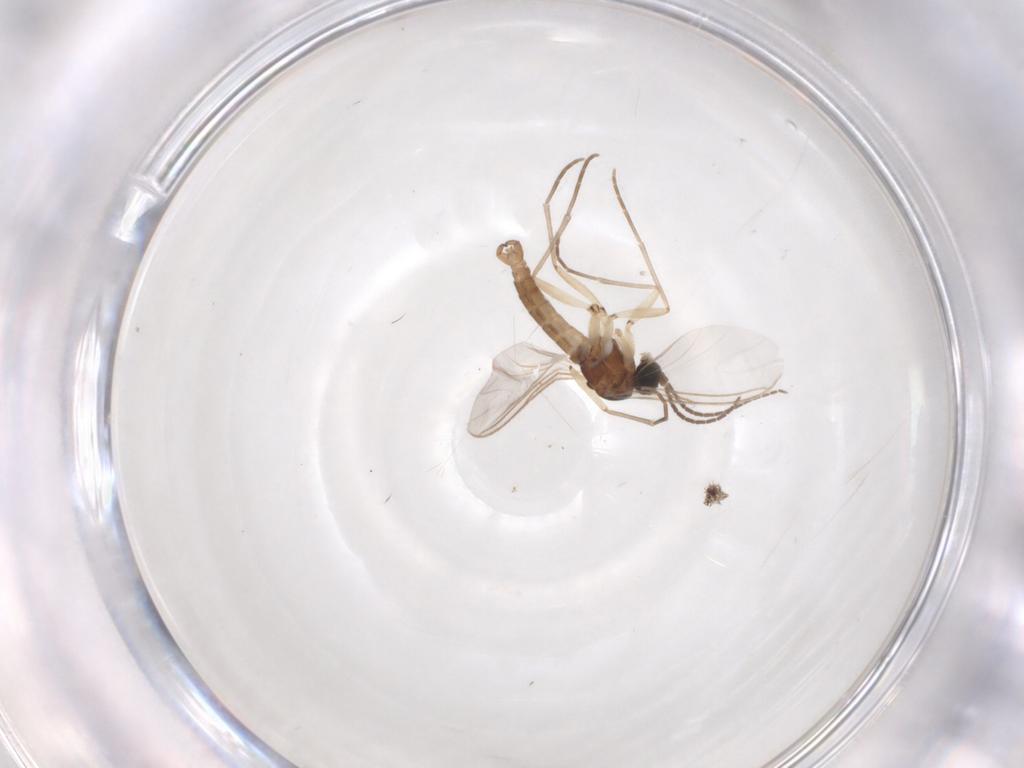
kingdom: Animalia
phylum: Arthropoda
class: Insecta
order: Diptera
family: Sciaridae
